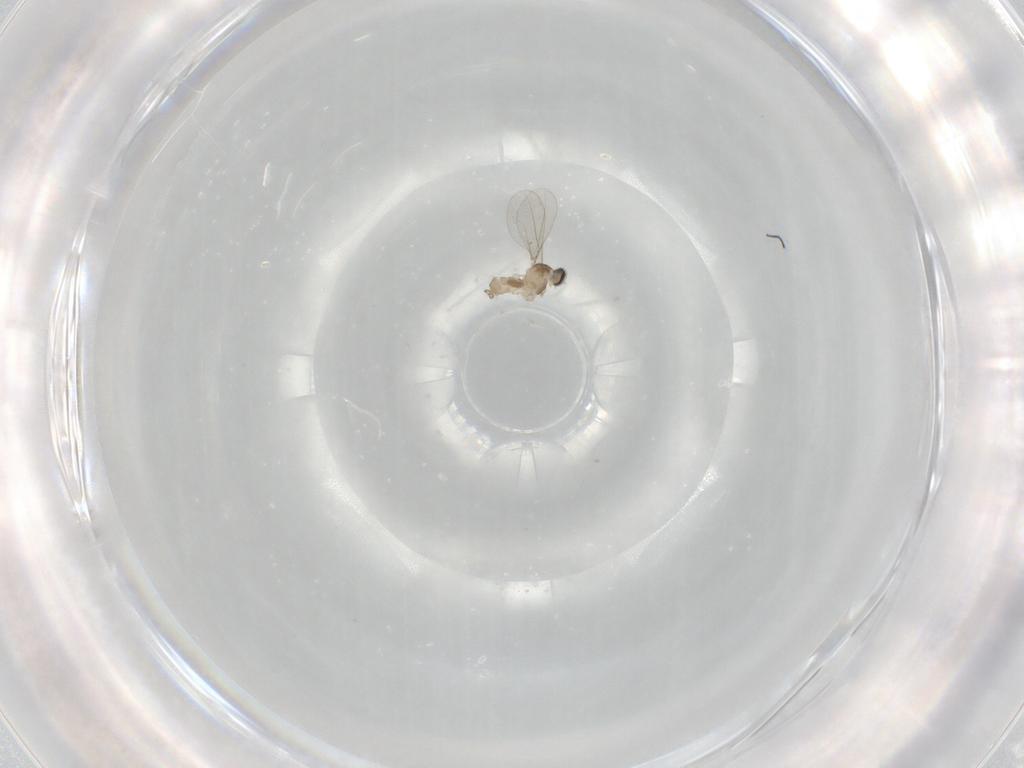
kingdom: Animalia
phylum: Arthropoda
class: Insecta
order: Diptera
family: Cecidomyiidae
